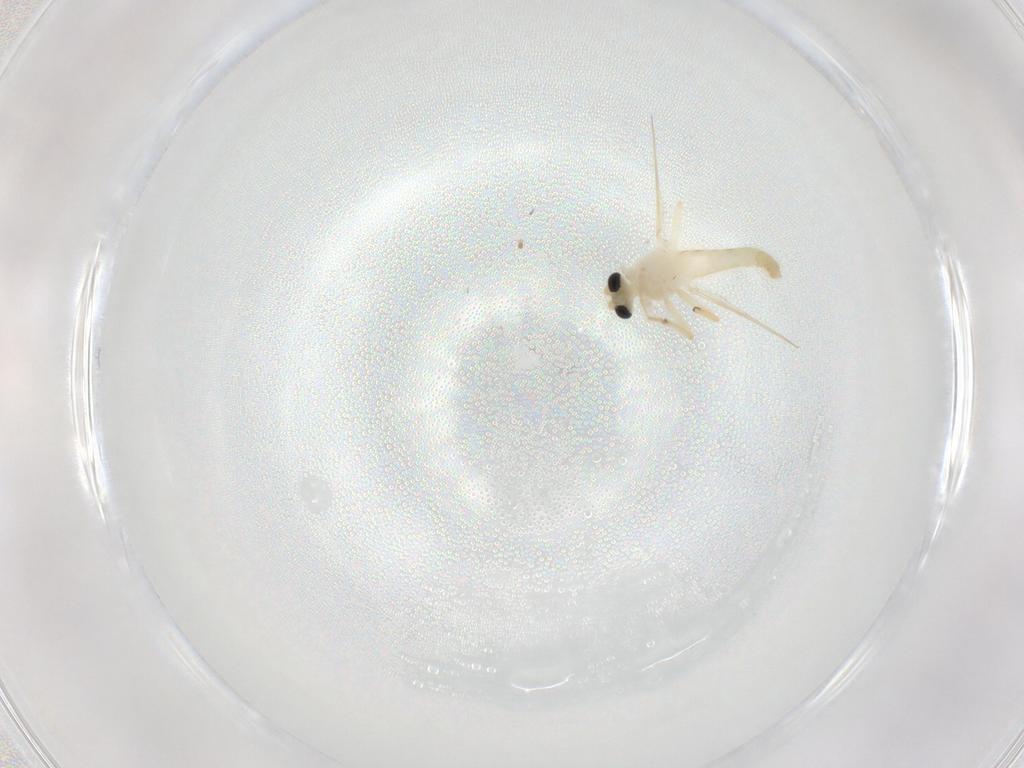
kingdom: Animalia
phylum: Arthropoda
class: Insecta
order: Diptera
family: Chironomidae
